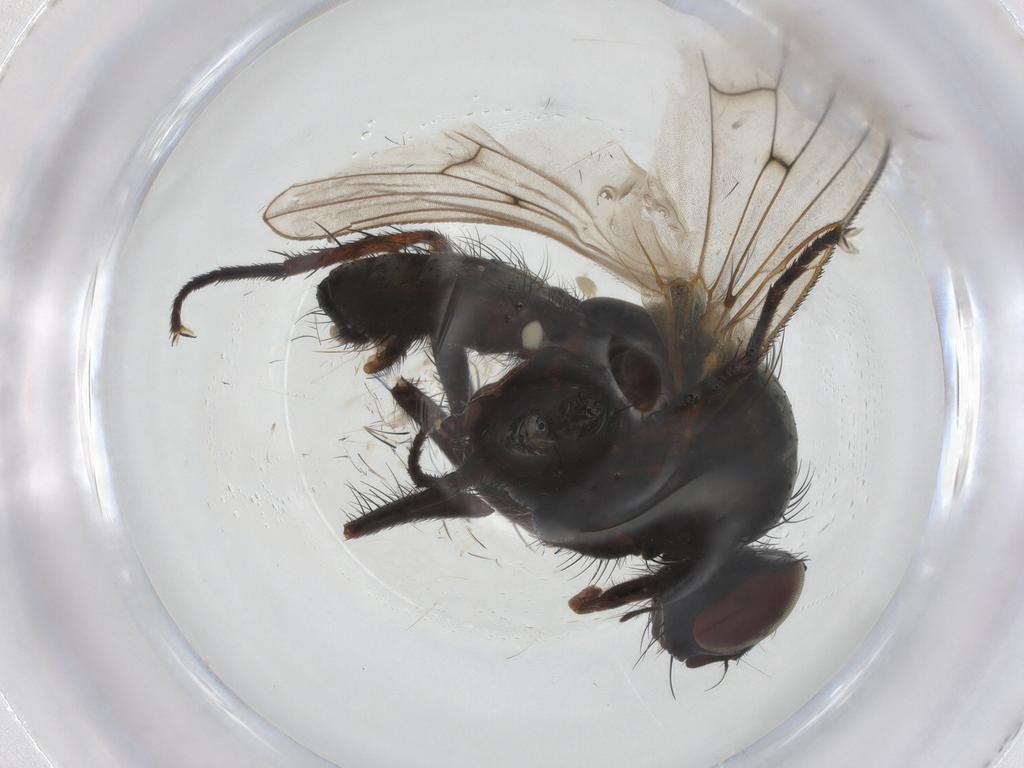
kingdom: Animalia
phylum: Arthropoda
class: Insecta
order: Diptera
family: Anthomyiidae
